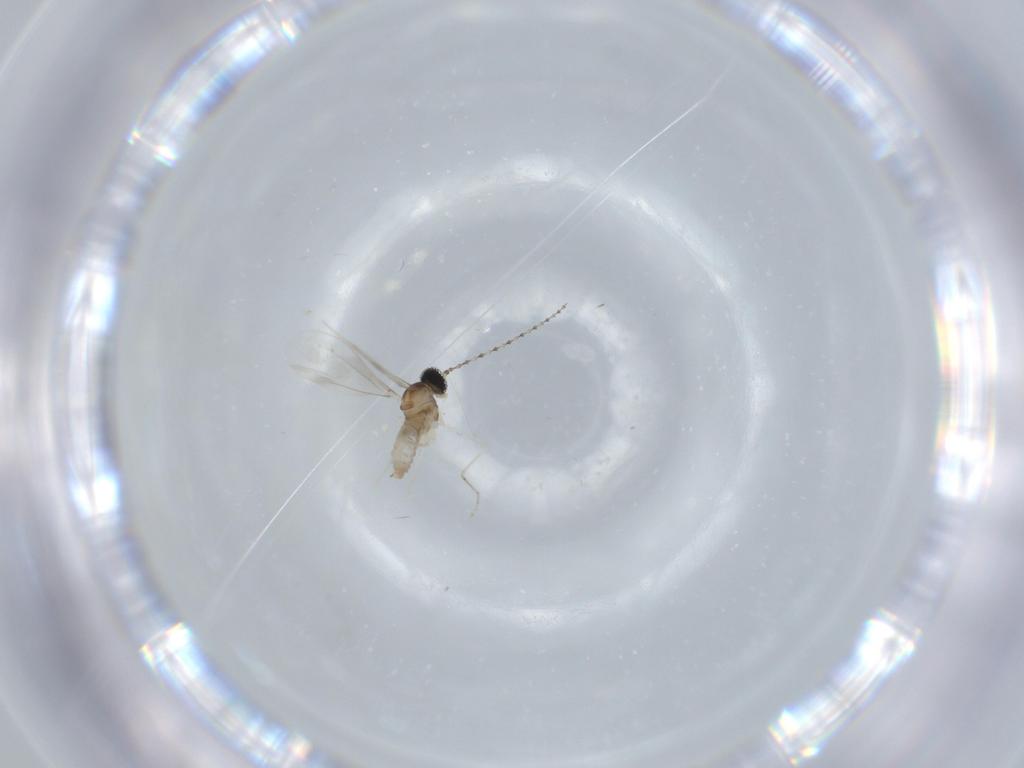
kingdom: Animalia
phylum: Arthropoda
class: Insecta
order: Diptera
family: Cecidomyiidae
